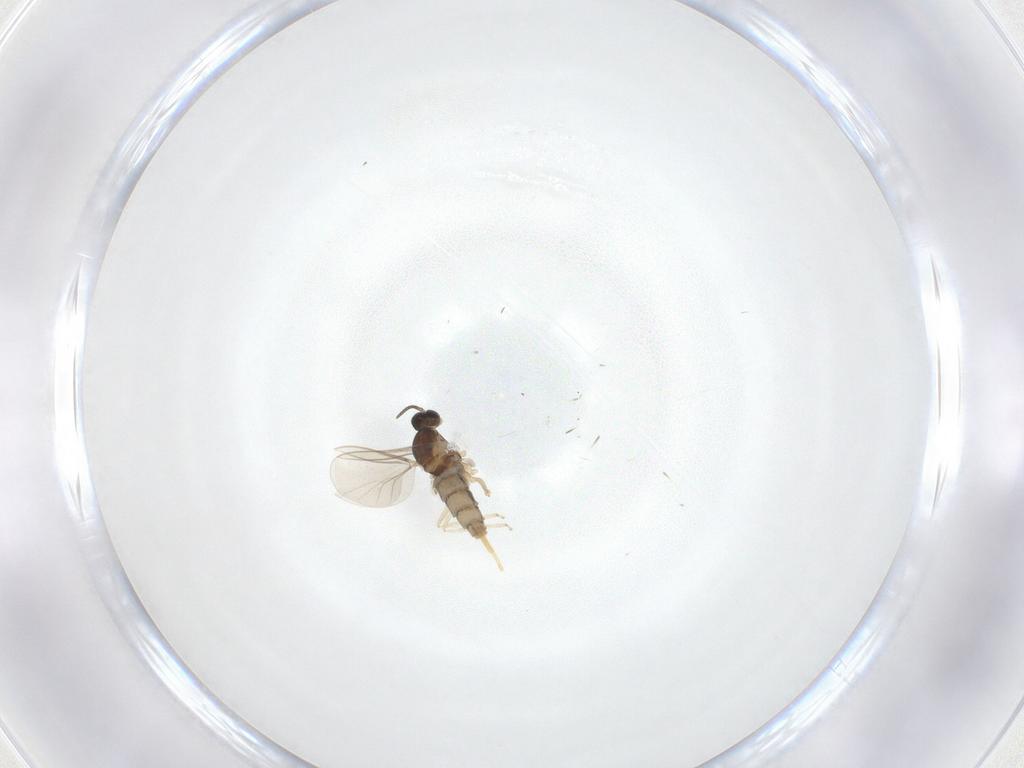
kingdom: Animalia
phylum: Arthropoda
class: Insecta
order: Diptera
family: Cecidomyiidae
